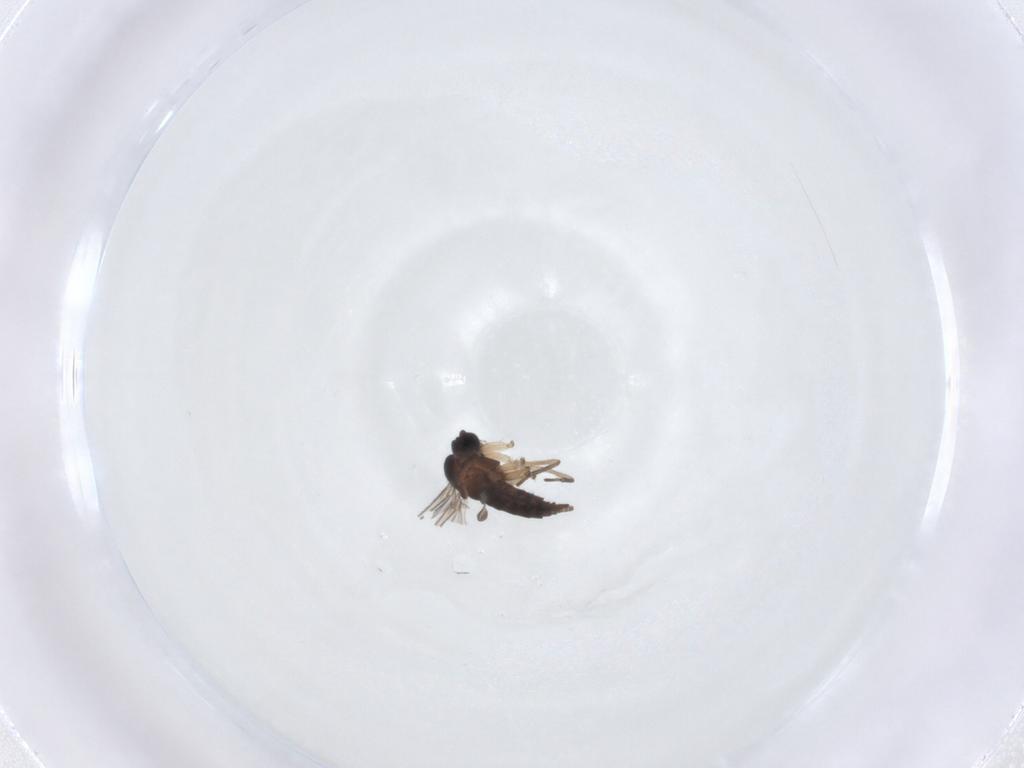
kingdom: Animalia
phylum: Arthropoda
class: Insecta
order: Diptera
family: Sciaridae
